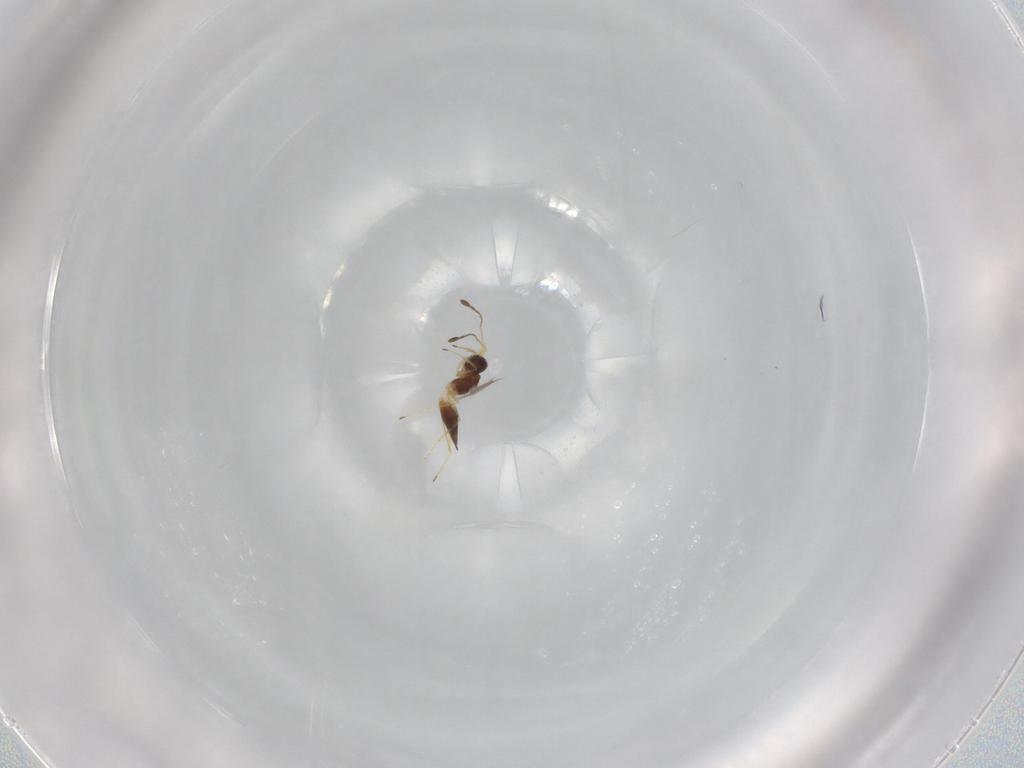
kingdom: Animalia
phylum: Arthropoda
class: Insecta
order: Hymenoptera
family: Mymaridae
